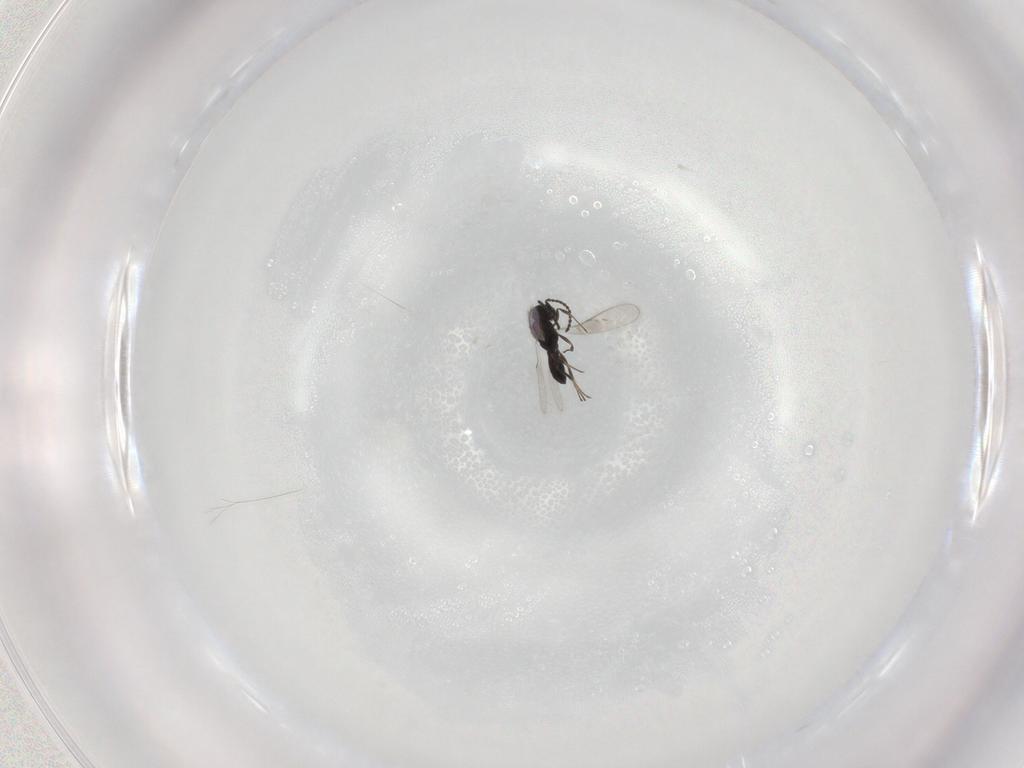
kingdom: Animalia
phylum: Arthropoda
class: Insecta
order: Hymenoptera
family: Scelionidae
